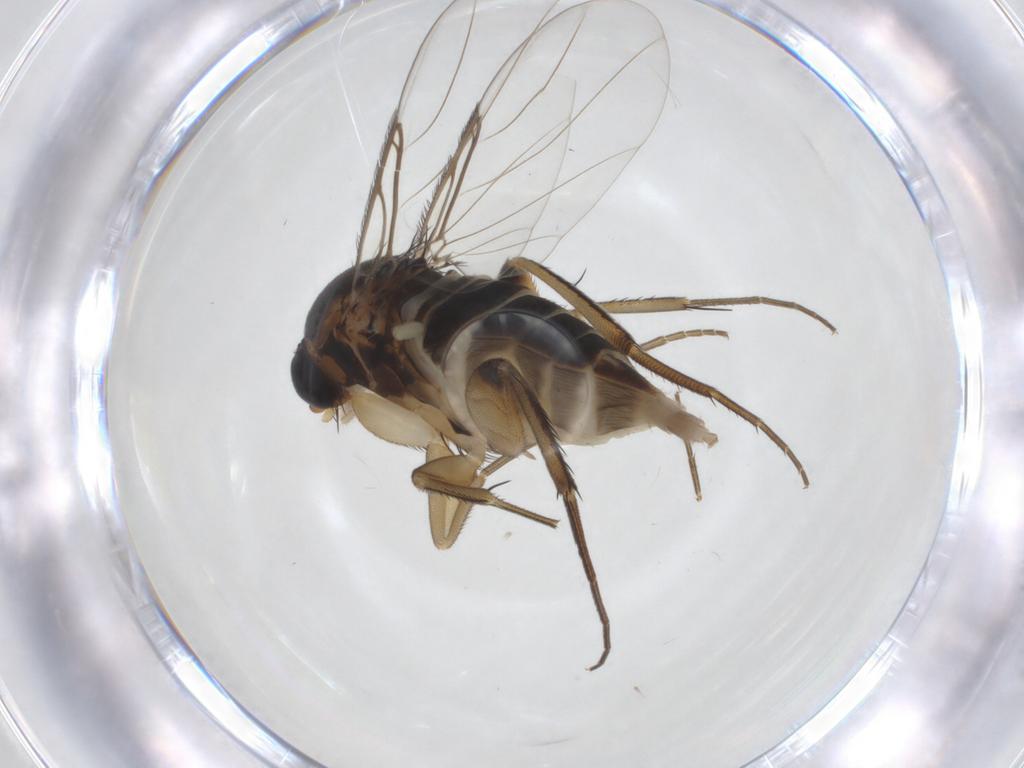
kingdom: Animalia
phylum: Arthropoda
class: Insecta
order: Diptera
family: Phoridae
